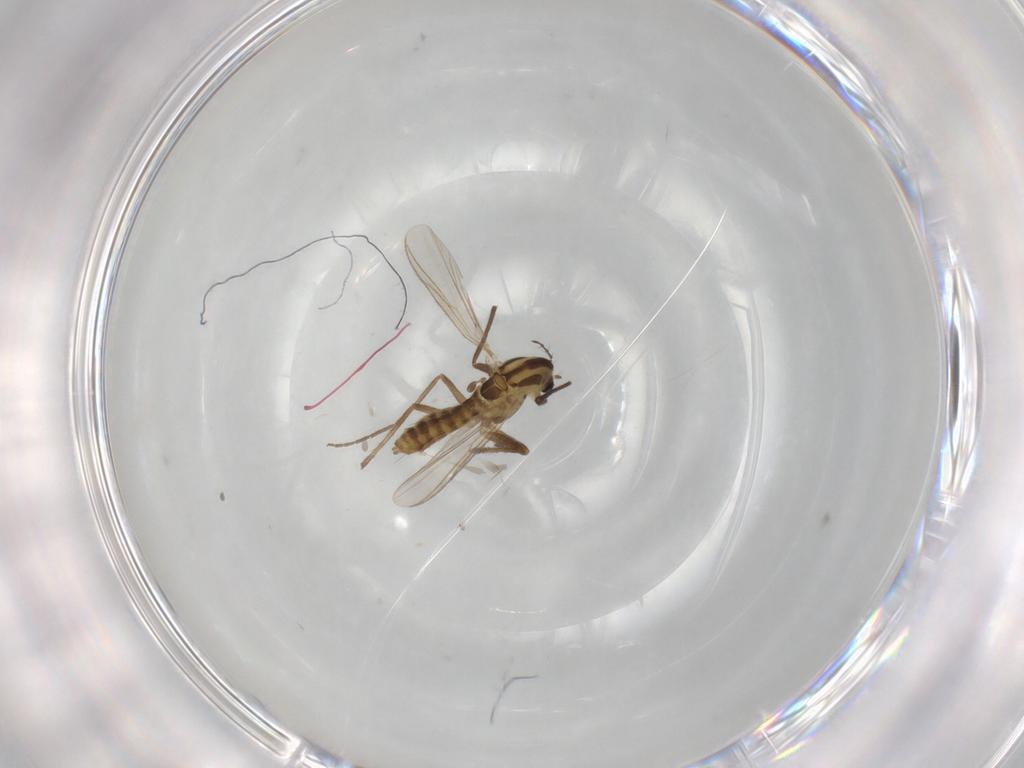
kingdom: Animalia
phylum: Arthropoda
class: Insecta
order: Diptera
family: Chironomidae
